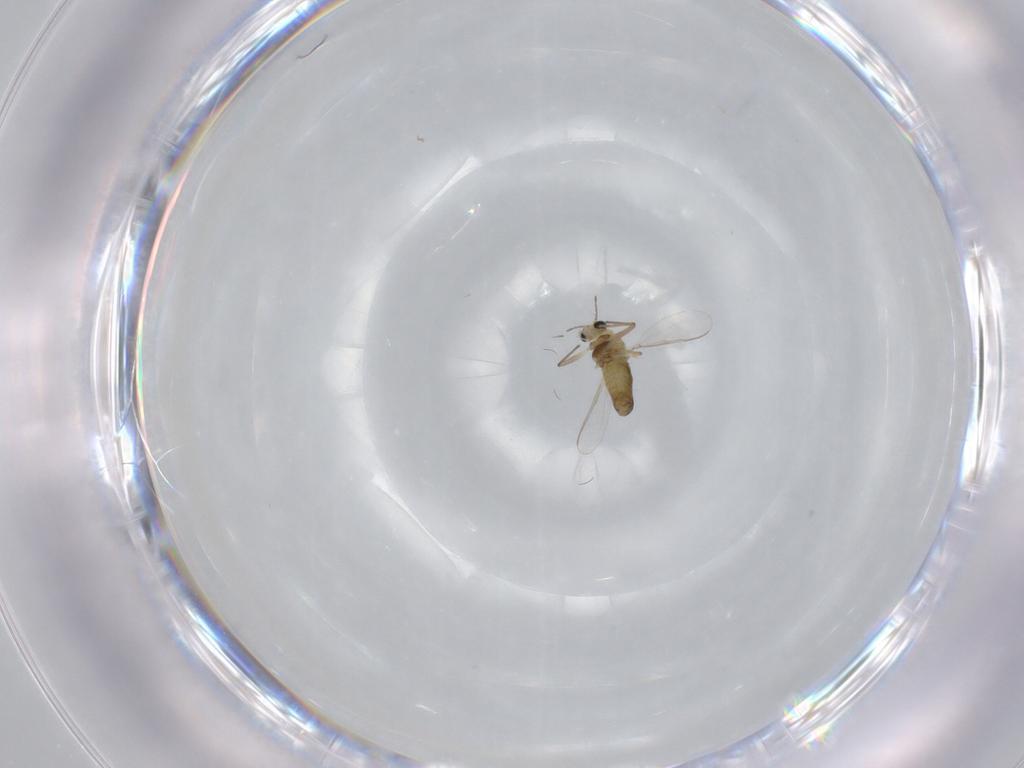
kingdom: Animalia
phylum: Arthropoda
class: Insecta
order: Diptera
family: Chironomidae
